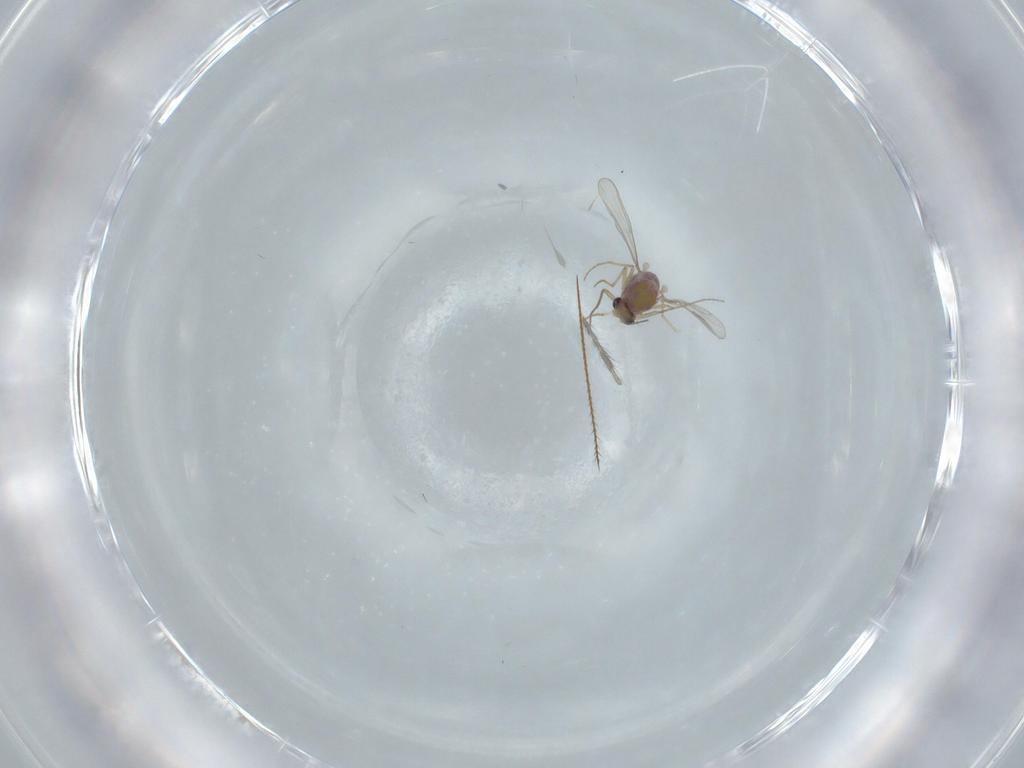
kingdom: Animalia
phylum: Arthropoda
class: Insecta
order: Diptera
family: Chironomidae
